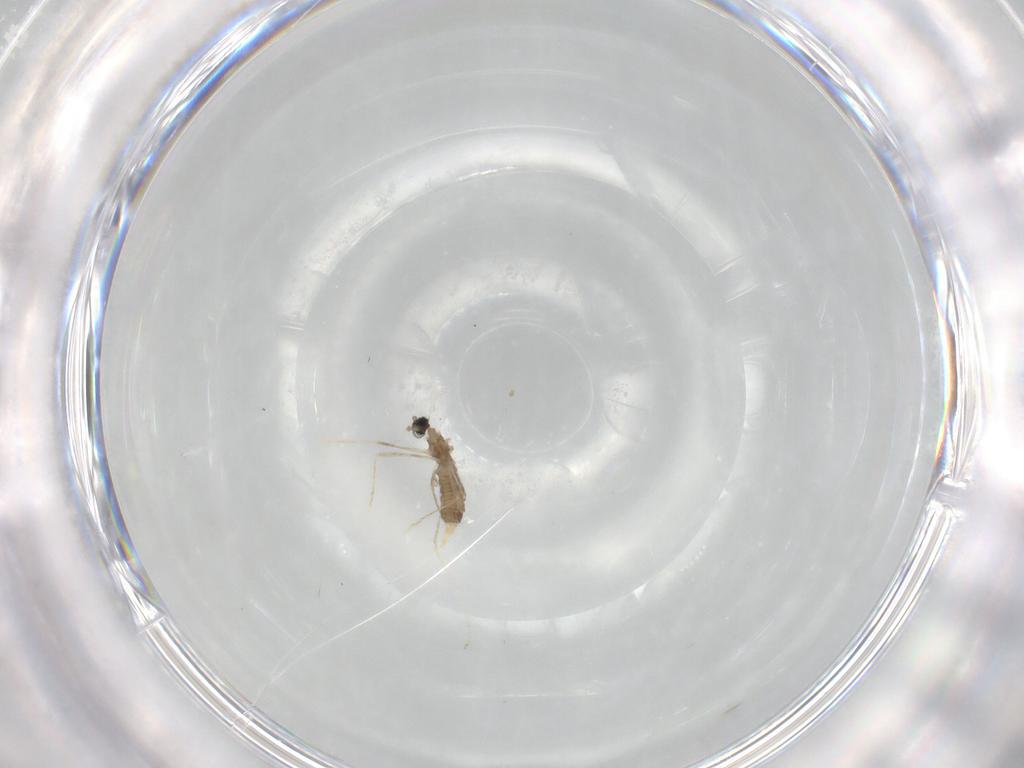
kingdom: Animalia
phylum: Arthropoda
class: Insecta
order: Diptera
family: Cecidomyiidae
